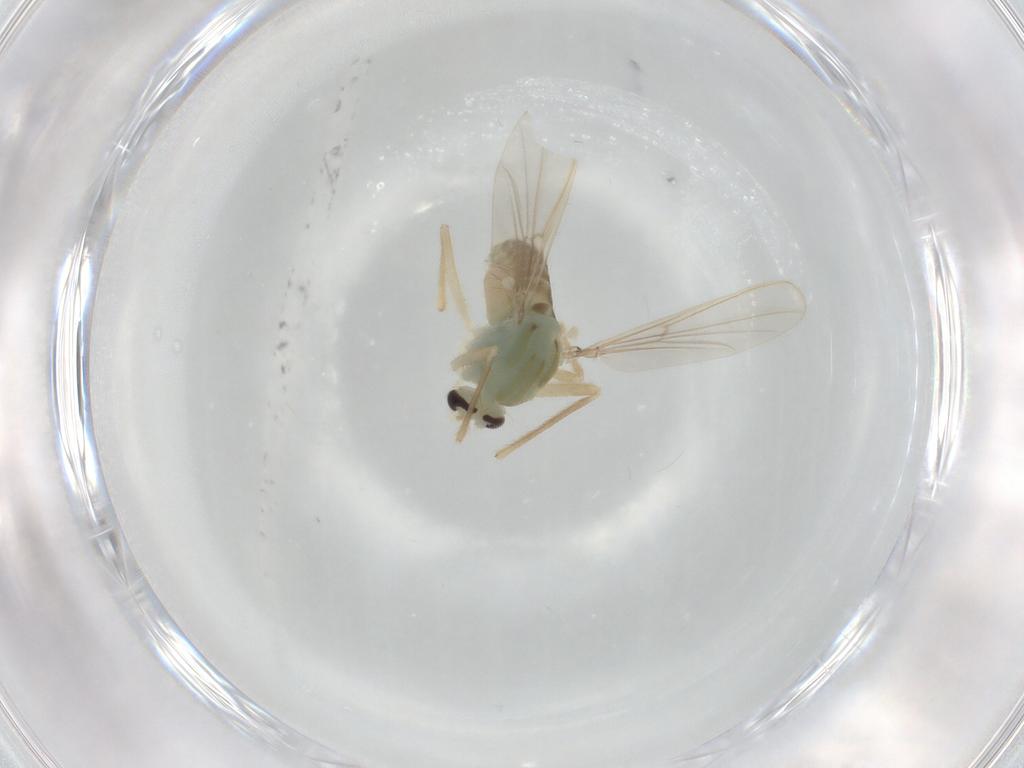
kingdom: Animalia
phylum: Arthropoda
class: Insecta
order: Diptera
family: Chironomidae
